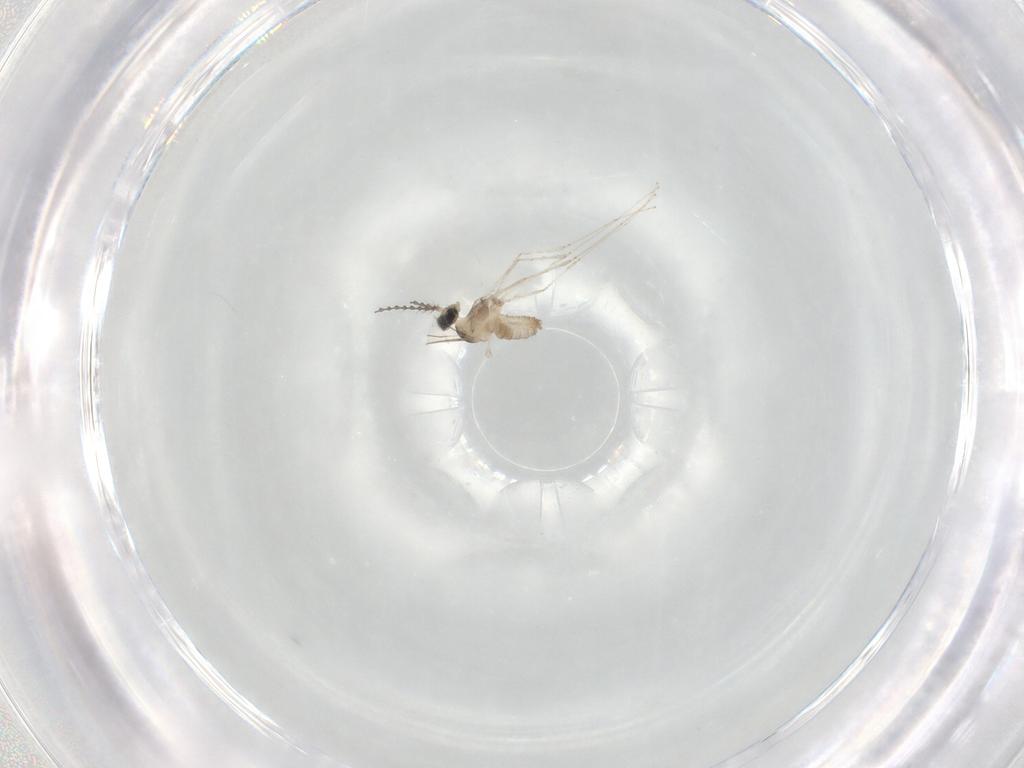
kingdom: Animalia
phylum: Arthropoda
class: Insecta
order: Diptera
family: Cecidomyiidae
